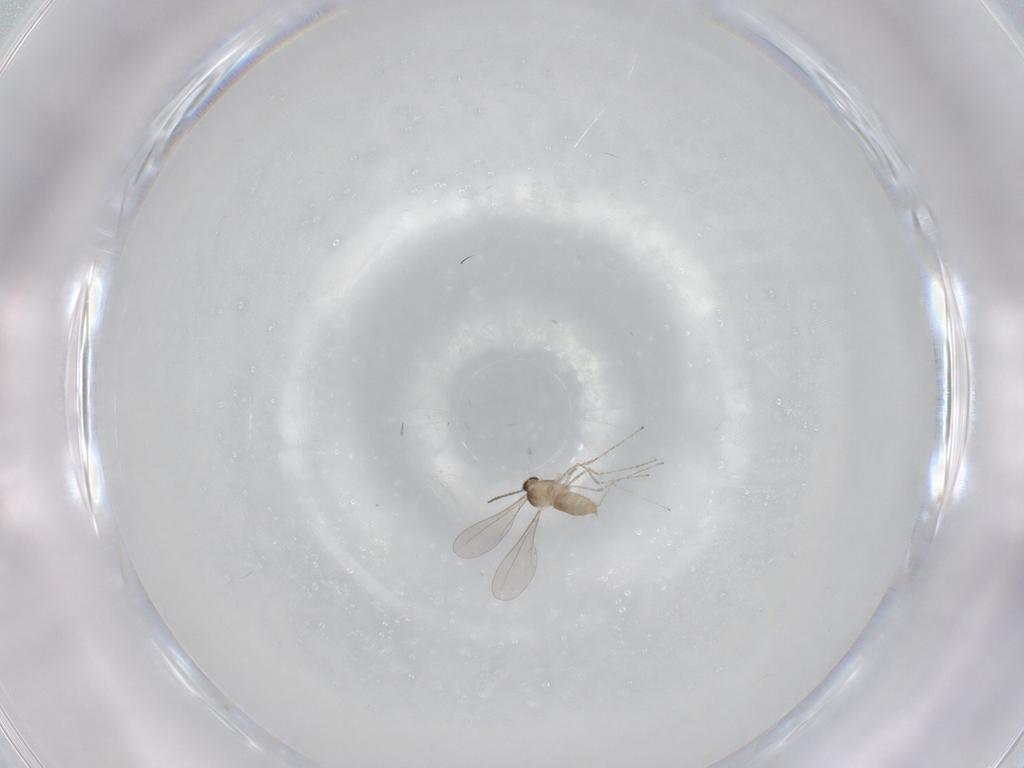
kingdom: Animalia
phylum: Arthropoda
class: Insecta
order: Diptera
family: Cecidomyiidae
